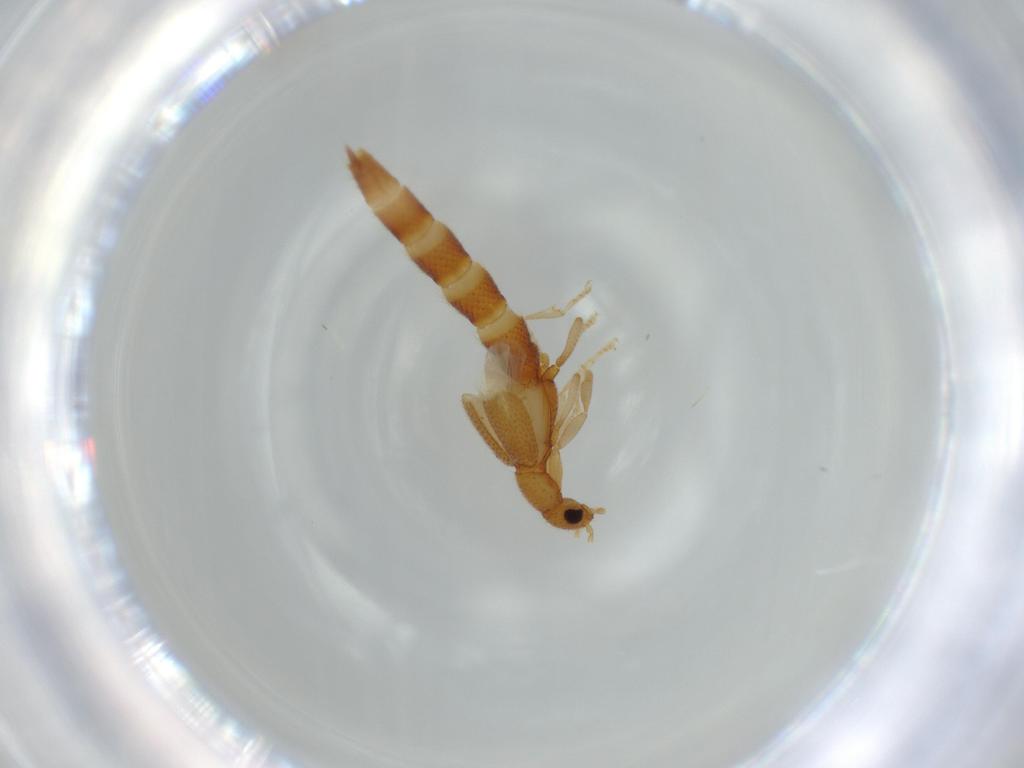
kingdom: Animalia
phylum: Arthropoda
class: Insecta
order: Coleoptera
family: Staphylinidae
